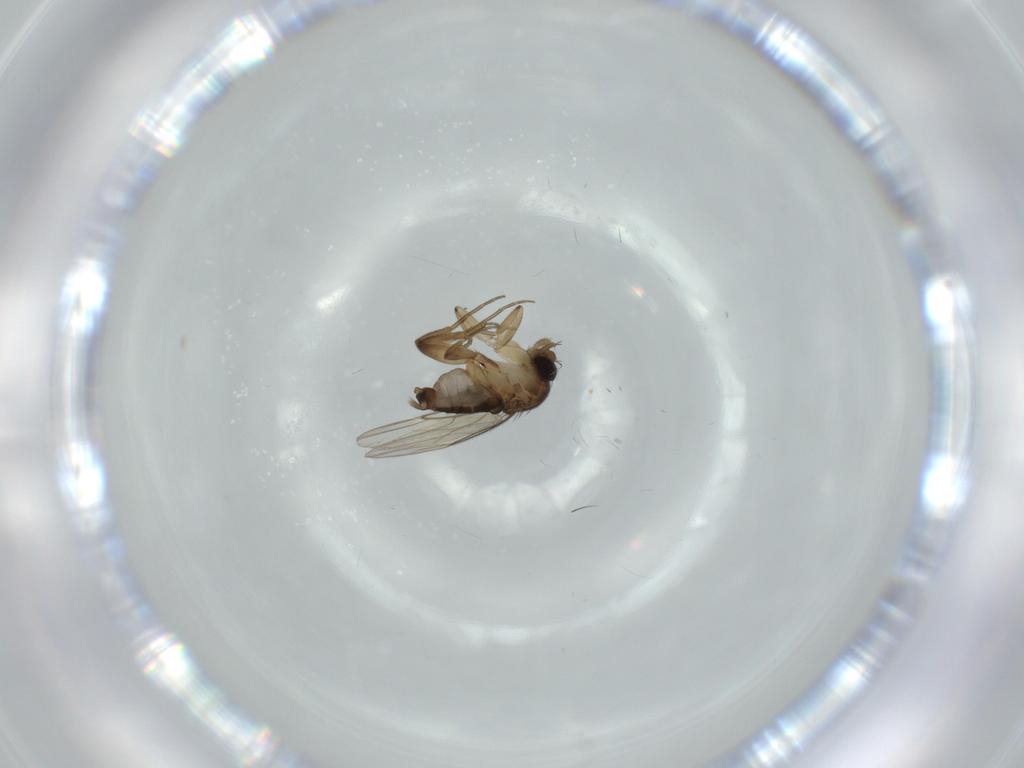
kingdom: Animalia
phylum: Arthropoda
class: Insecta
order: Diptera
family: Phoridae
